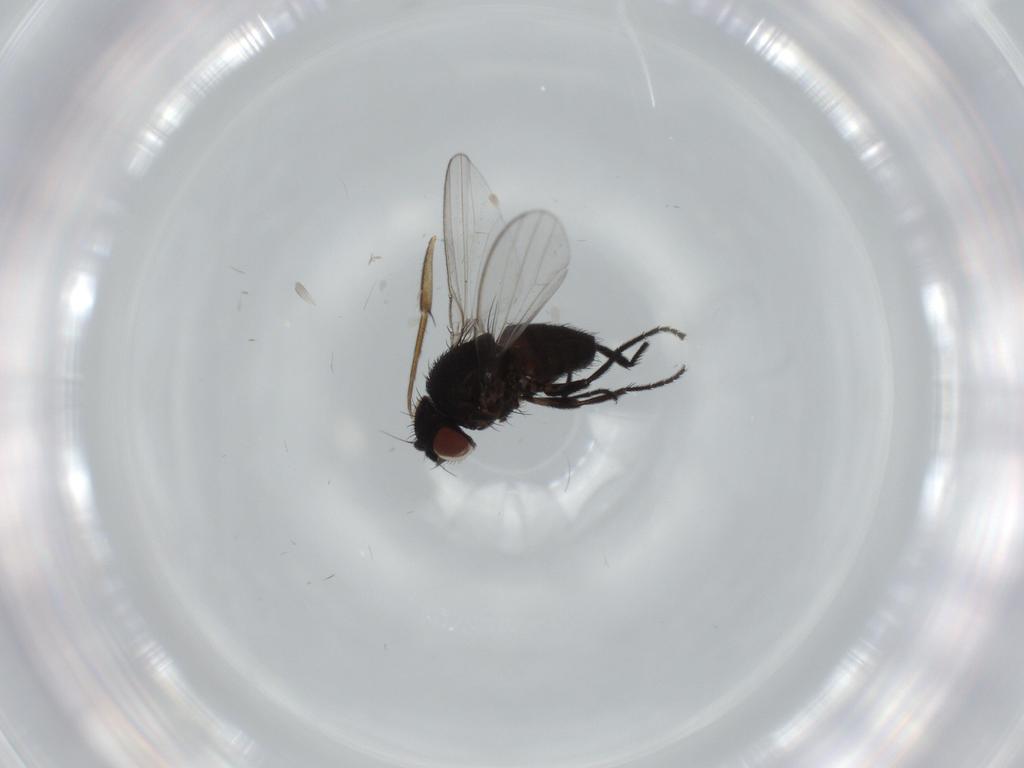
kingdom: Animalia
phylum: Arthropoda
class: Insecta
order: Diptera
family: Milichiidae
